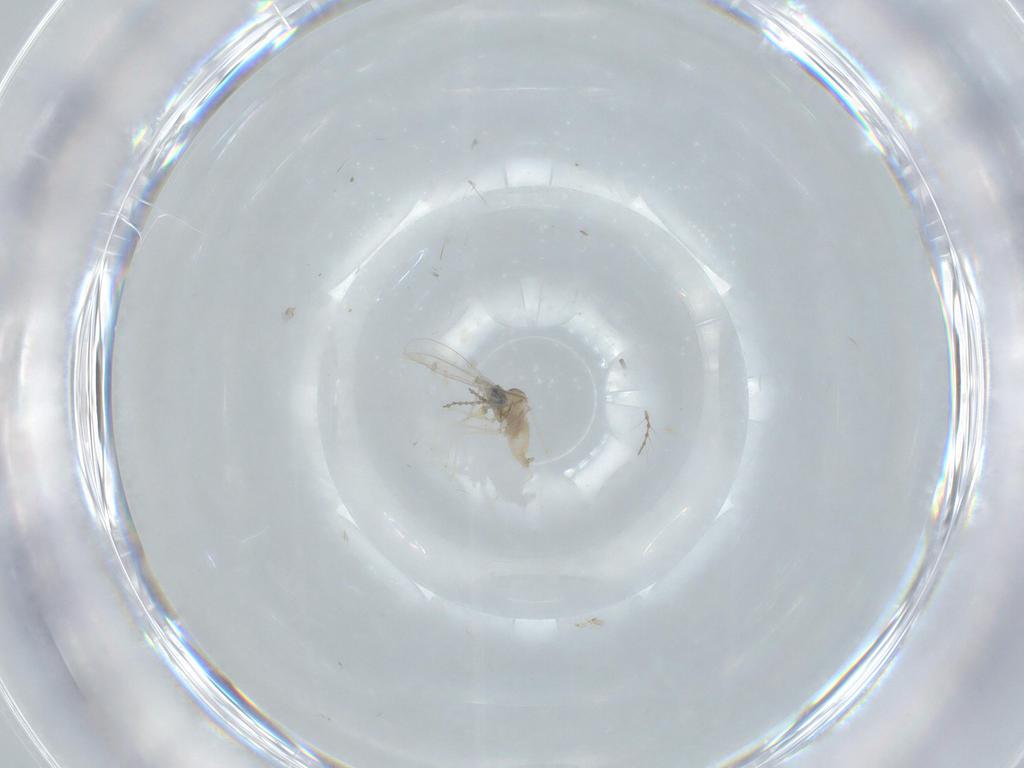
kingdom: Animalia
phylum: Arthropoda
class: Insecta
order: Diptera
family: Cecidomyiidae
